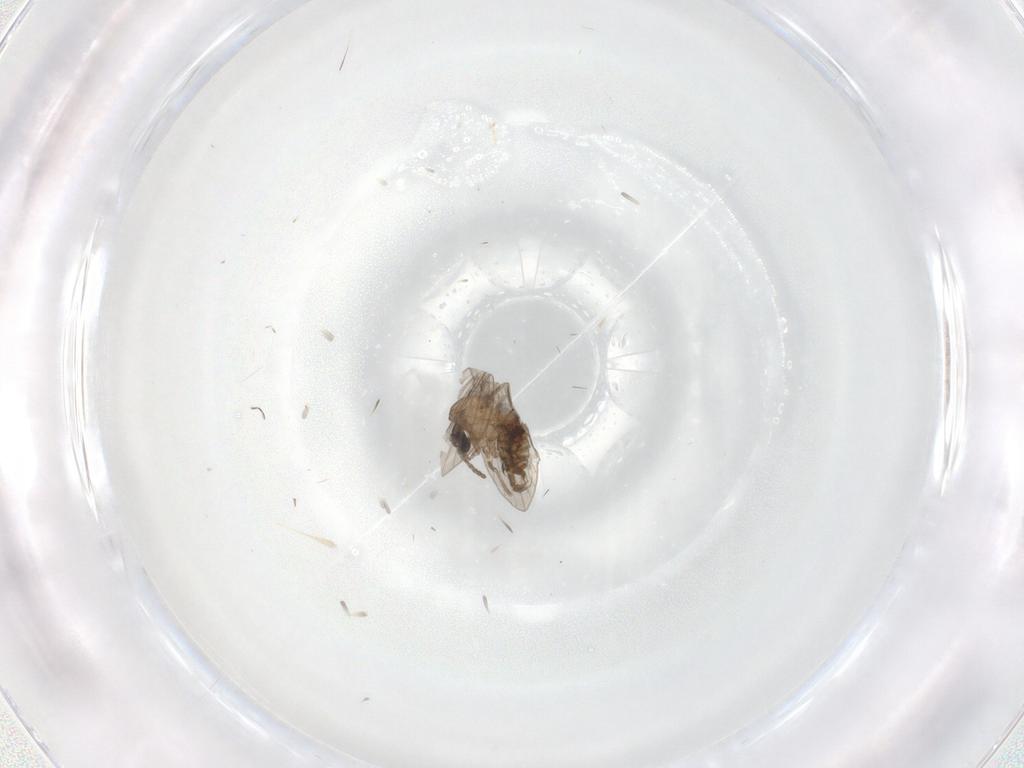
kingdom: Animalia
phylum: Arthropoda
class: Insecta
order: Diptera
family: Psychodidae
